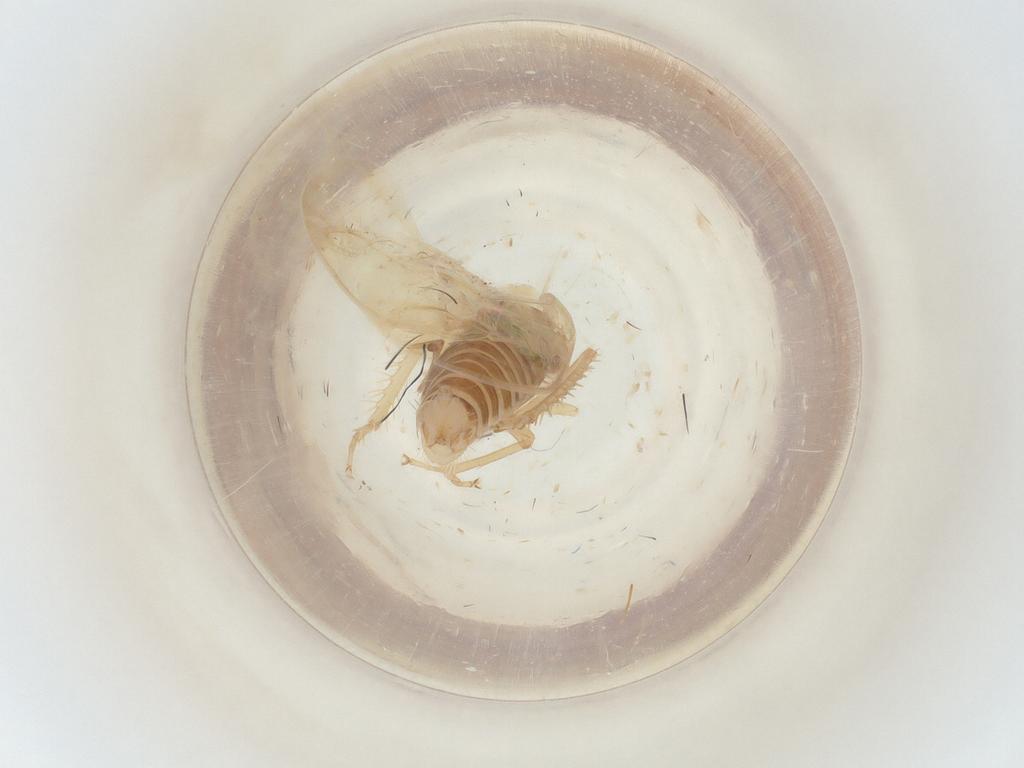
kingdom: Animalia
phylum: Arthropoda
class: Insecta
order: Hemiptera
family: Cicadellidae
